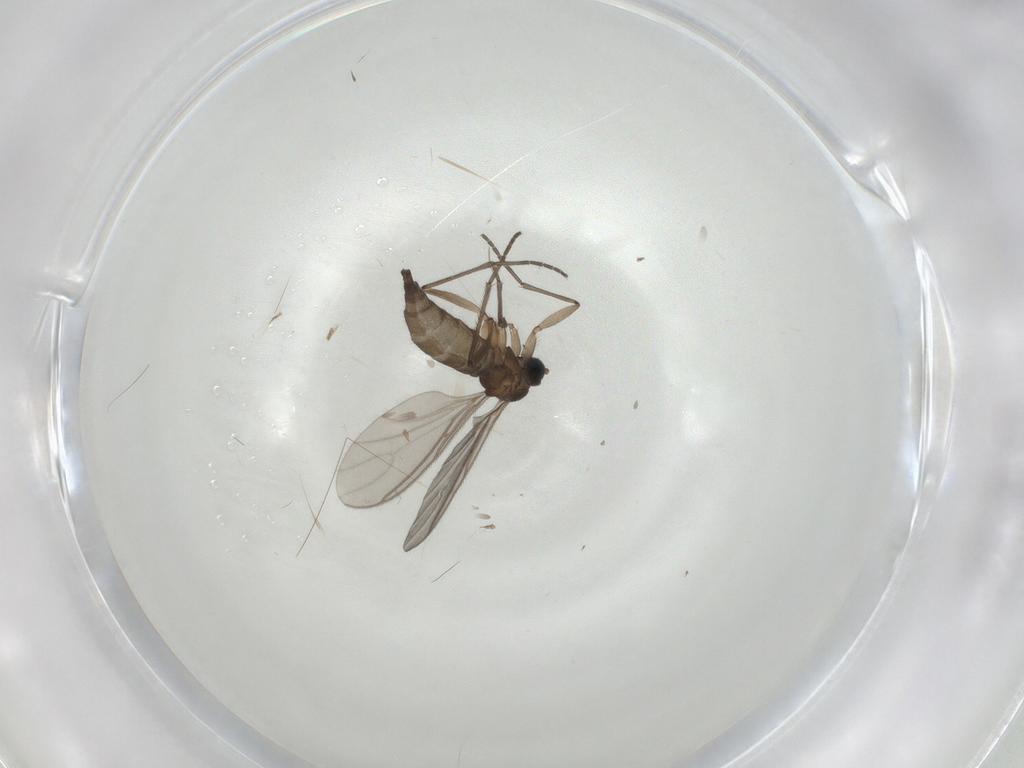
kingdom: Animalia
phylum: Arthropoda
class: Insecta
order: Diptera
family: Sciaridae
